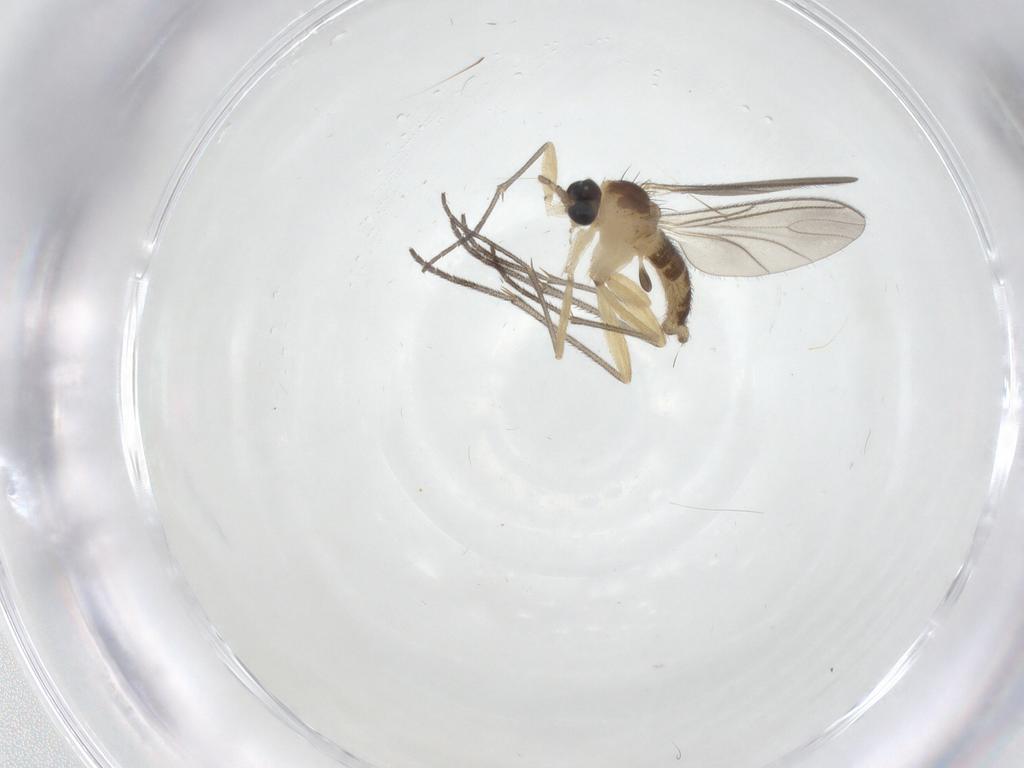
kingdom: Animalia
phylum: Arthropoda
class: Insecta
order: Diptera
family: Sciaridae
